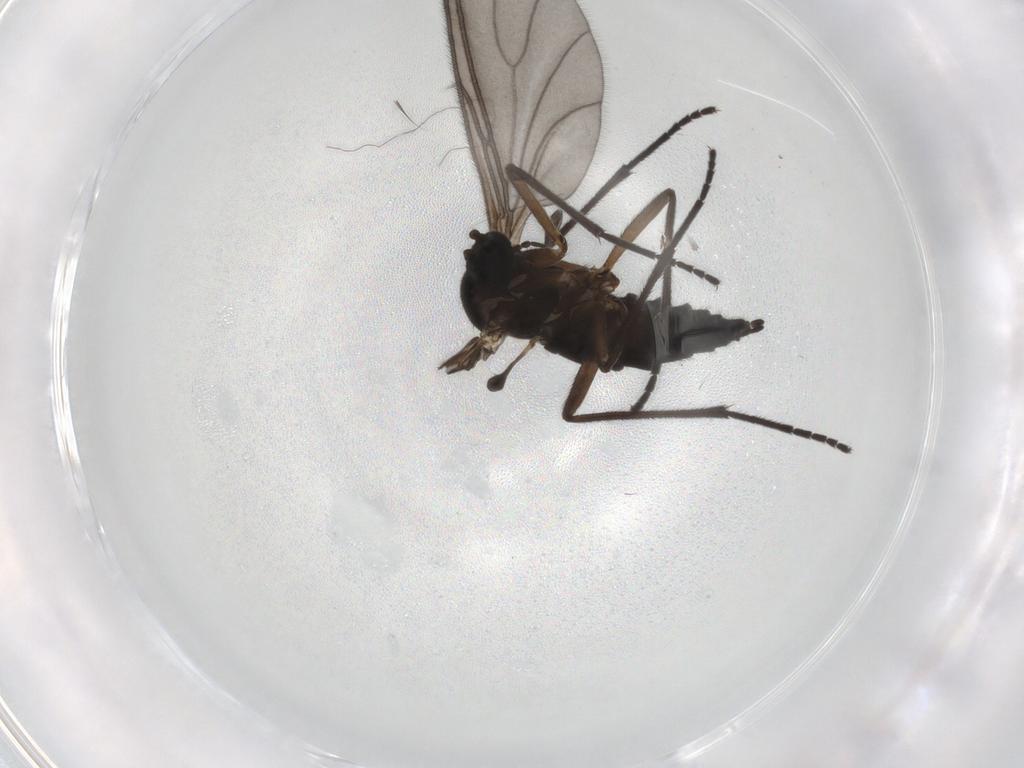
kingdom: Animalia
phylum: Arthropoda
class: Insecta
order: Diptera
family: Sciaridae
